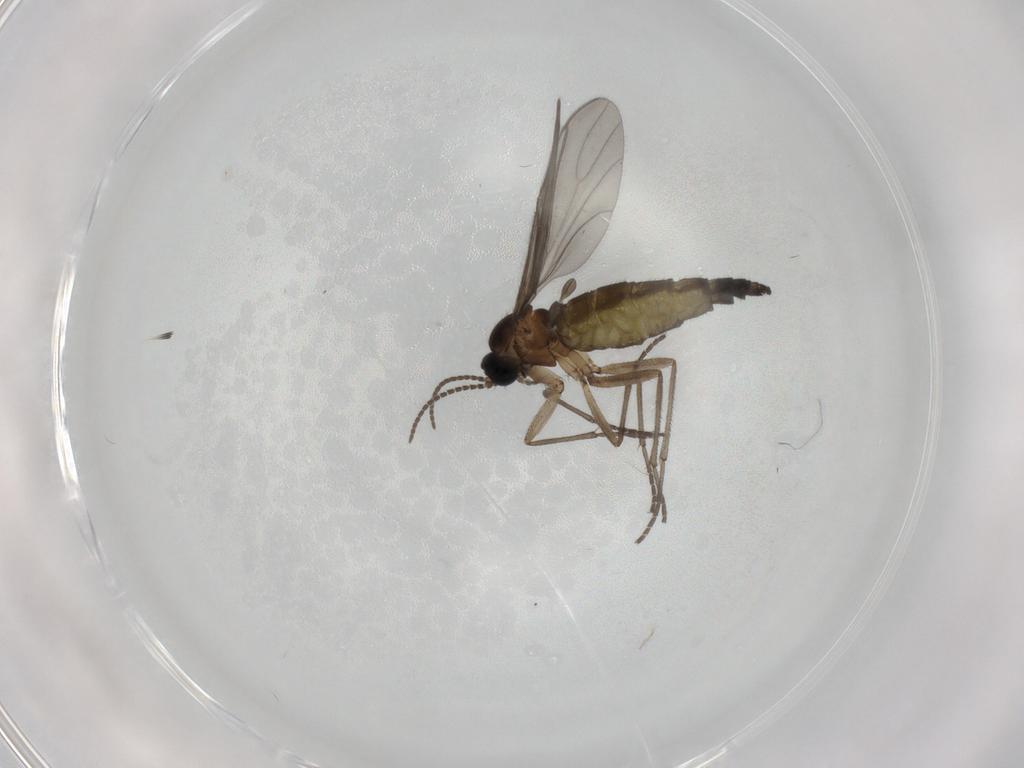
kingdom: Animalia
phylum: Arthropoda
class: Insecta
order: Diptera
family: Sciaridae
